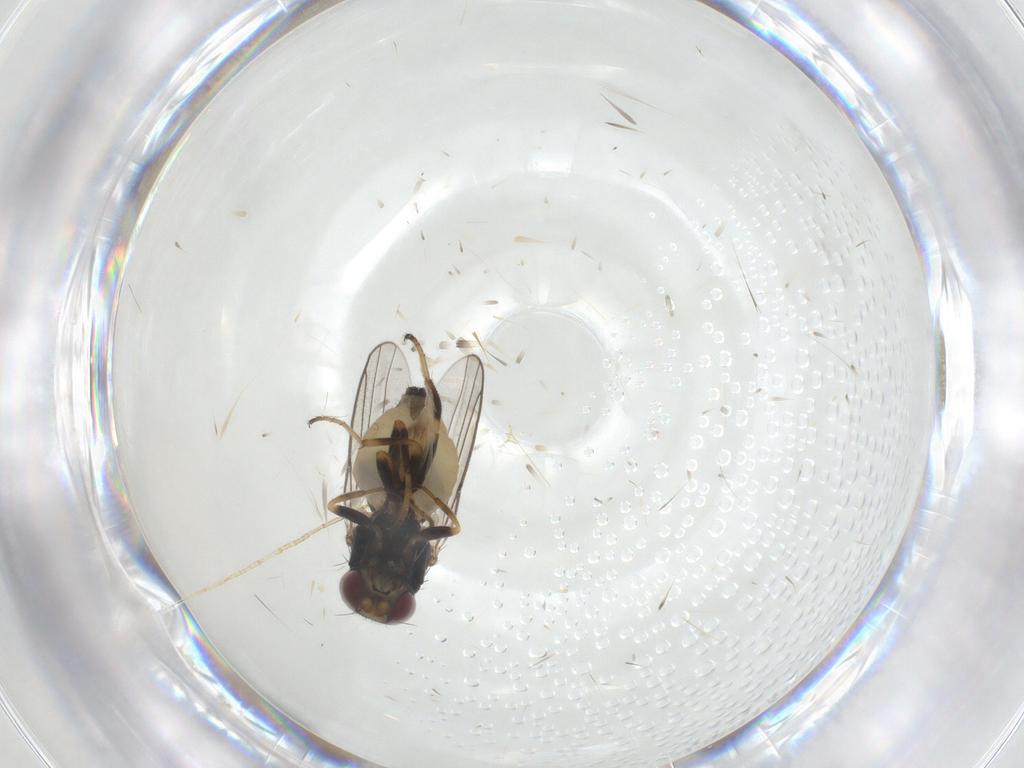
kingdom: Animalia
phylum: Arthropoda
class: Insecta
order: Diptera
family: Chloropidae
